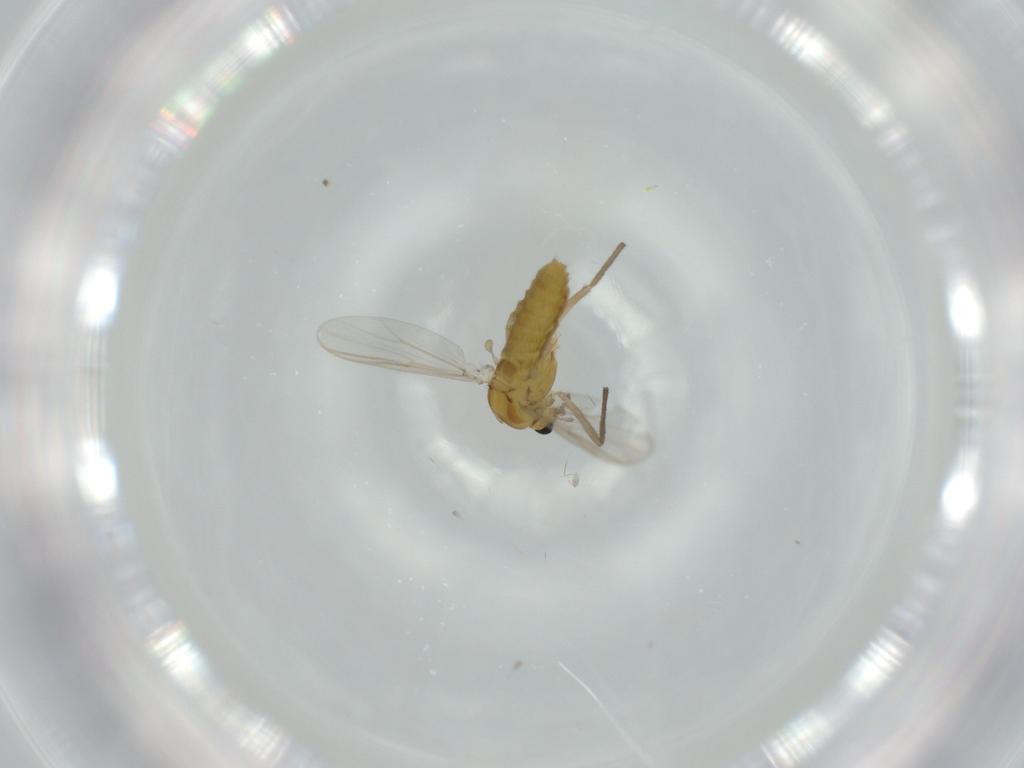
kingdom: Animalia
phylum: Arthropoda
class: Insecta
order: Diptera
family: Chironomidae
